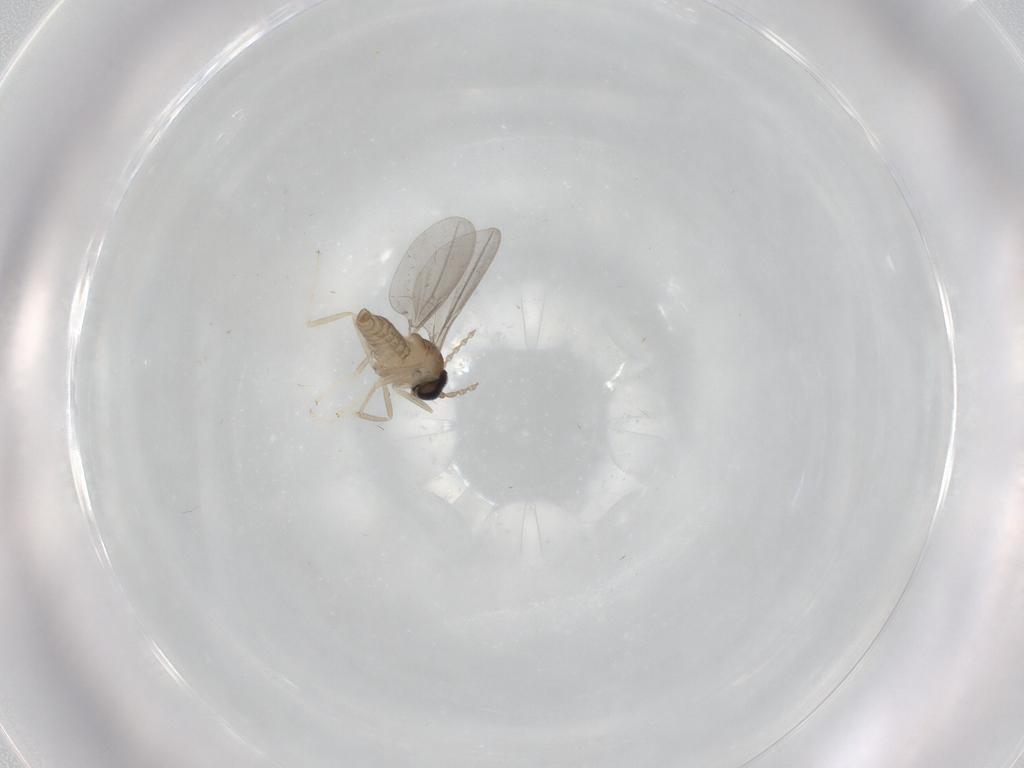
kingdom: Animalia
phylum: Arthropoda
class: Insecta
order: Diptera
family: Cecidomyiidae
